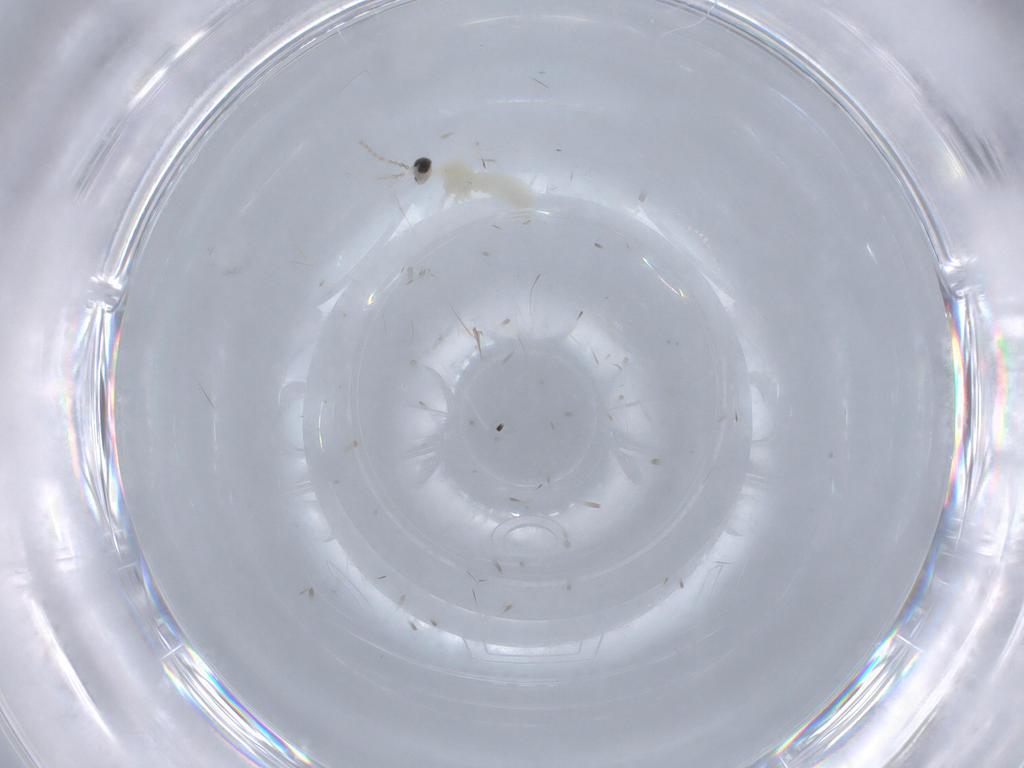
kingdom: Animalia
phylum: Arthropoda
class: Insecta
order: Diptera
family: Cecidomyiidae
